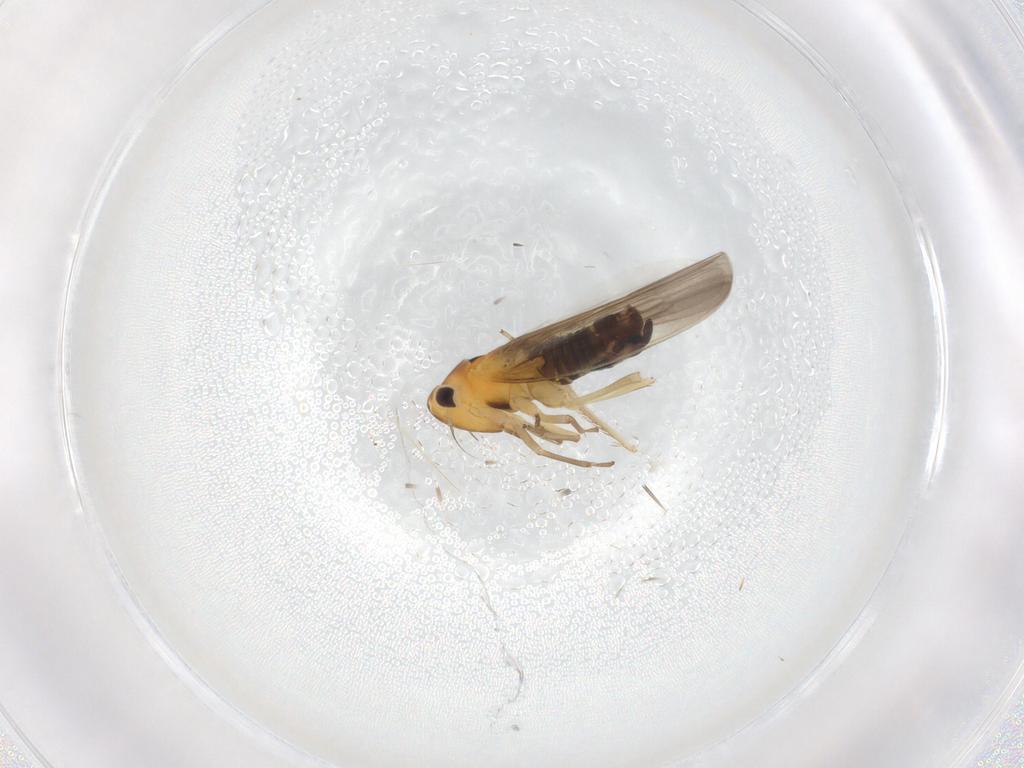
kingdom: Animalia
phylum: Arthropoda
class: Insecta
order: Hemiptera
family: Cicadellidae
